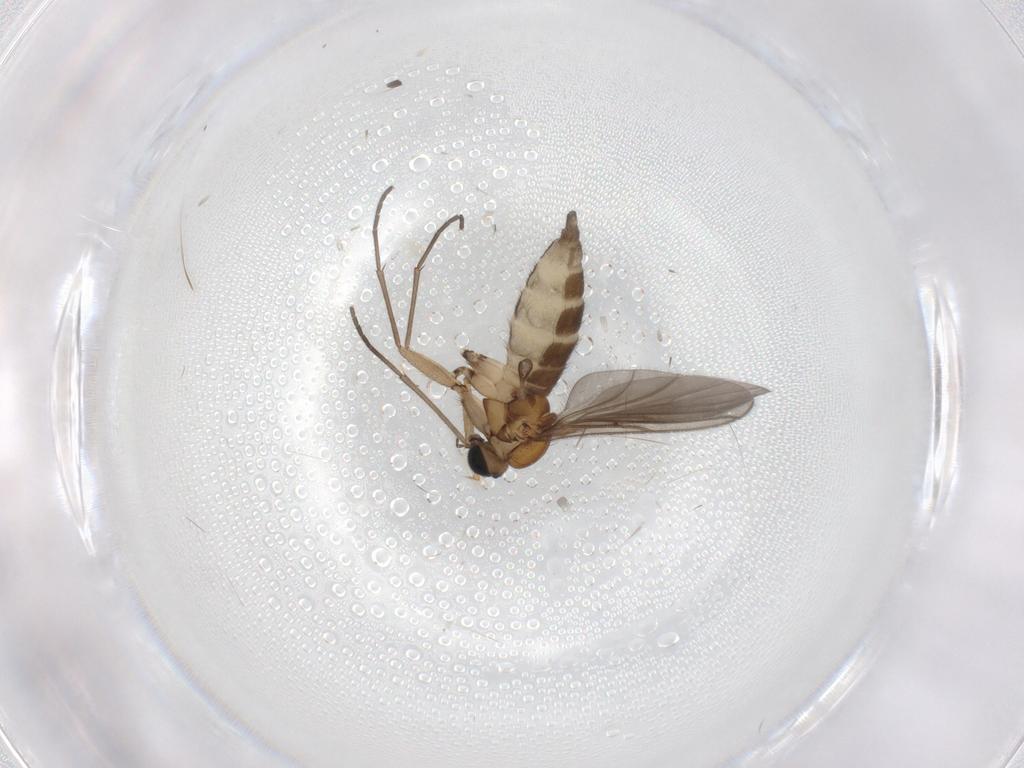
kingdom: Animalia
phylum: Arthropoda
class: Insecta
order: Diptera
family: Sciaridae
